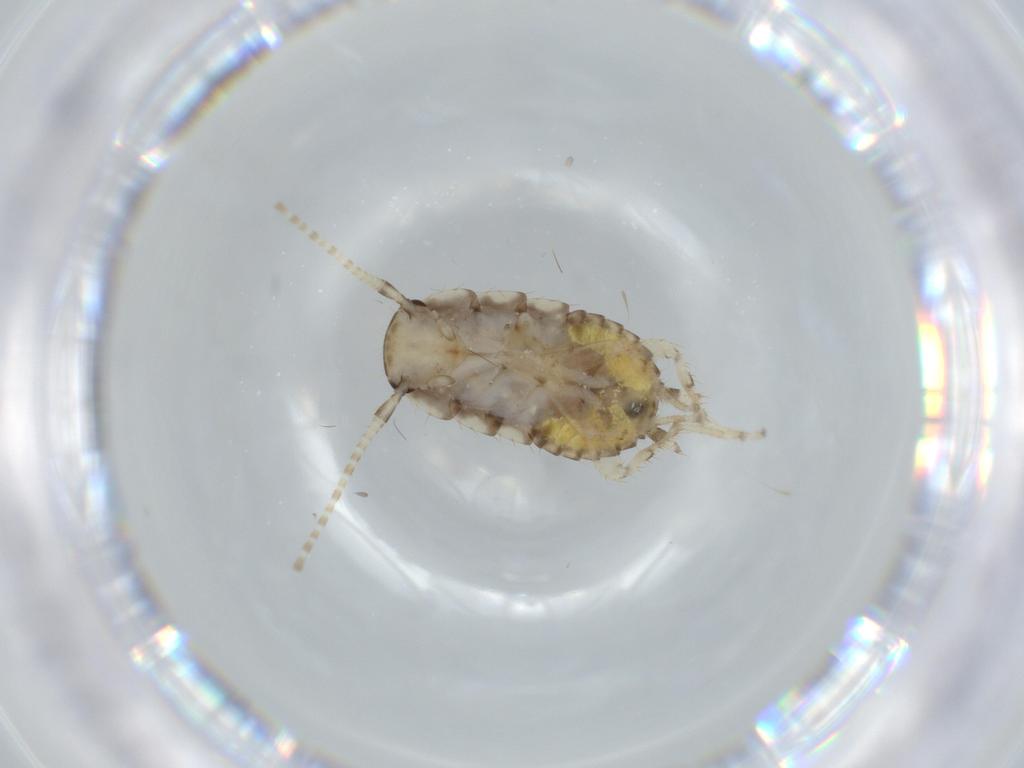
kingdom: Animalia
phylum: Arthropoda
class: Insecta
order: Blattodea
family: Ectobiidae
